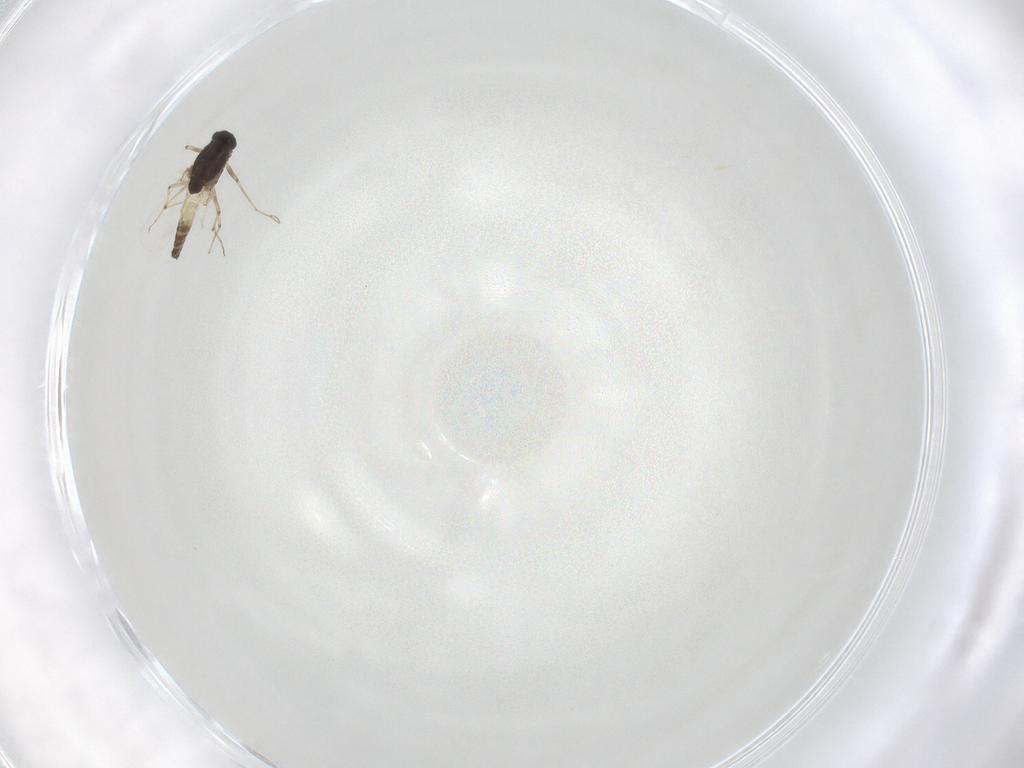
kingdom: Animalia
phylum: Arthropoda
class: Insecta
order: Diptera
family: Chironomidae
